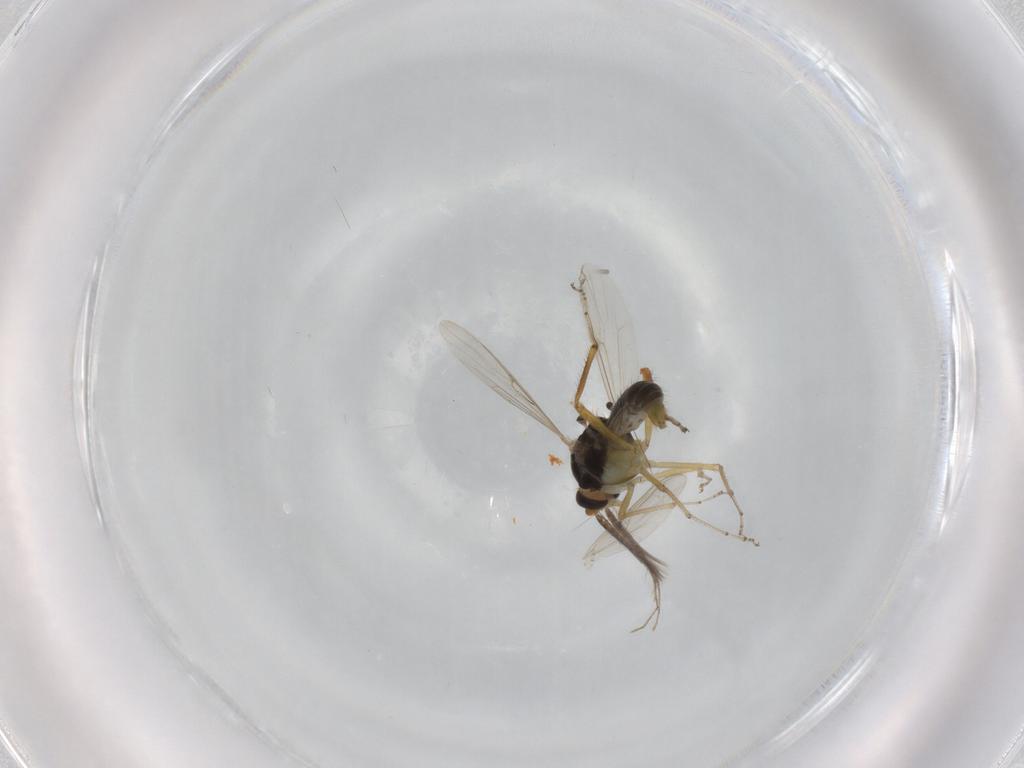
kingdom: Animalia
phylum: Arthropoda
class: Insecta
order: Diptera
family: Ceratopogonidae
